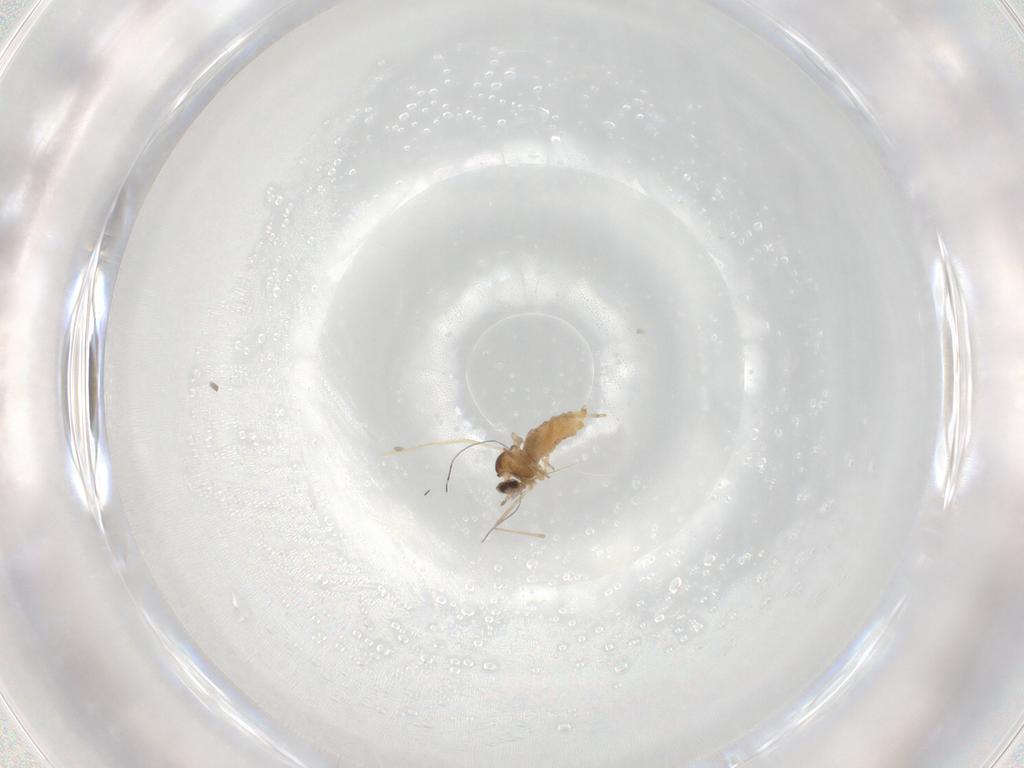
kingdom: Animalia
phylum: Arthropoda
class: Insecta
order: Diptera
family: Cecidomyiidae
